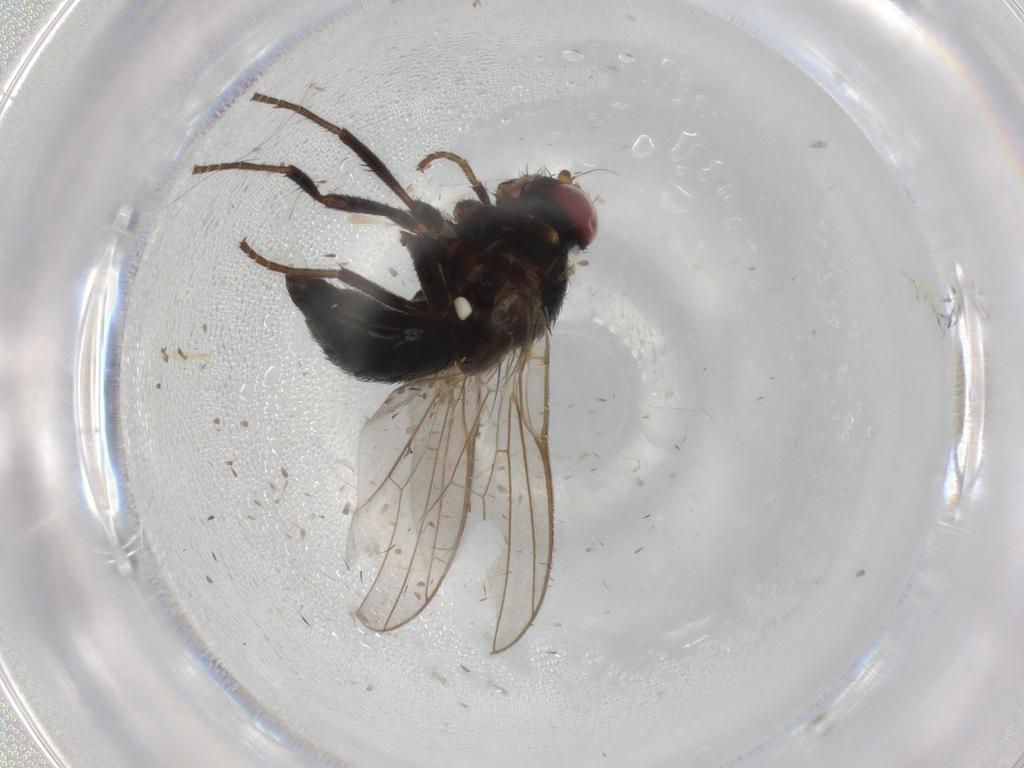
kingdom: Animalia
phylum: Arthropoda
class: Insecta
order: Diptera
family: Cecidomyiidae
